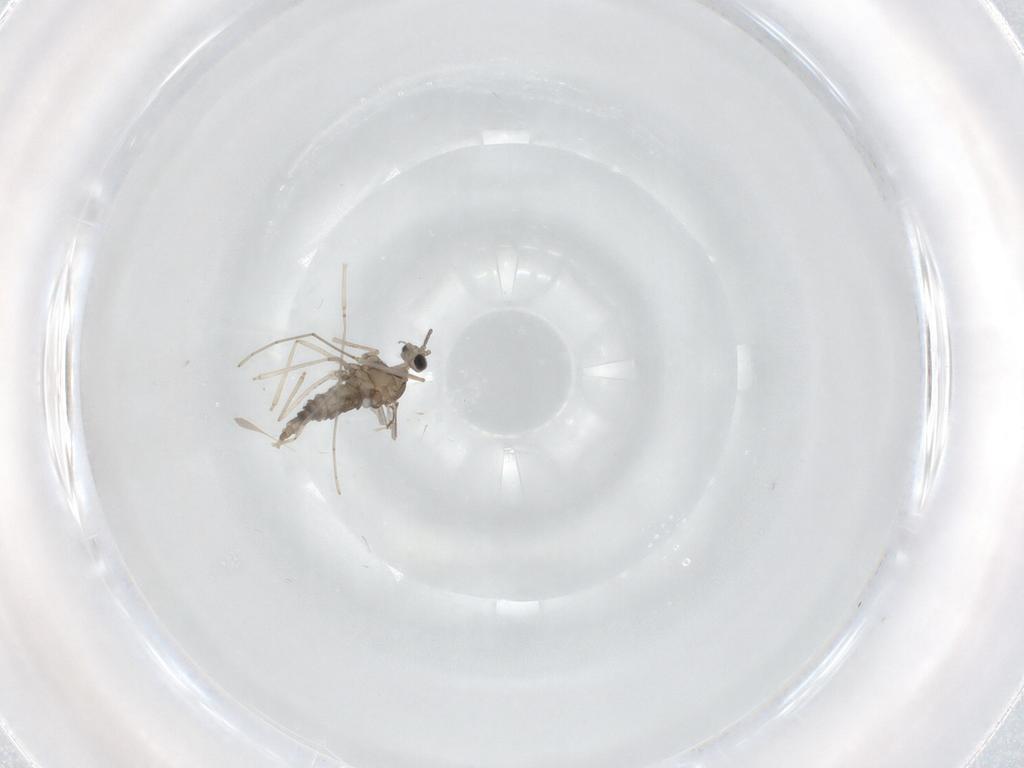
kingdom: Animalia
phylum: Arthropoda
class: Insecta
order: Diptera
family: Cecidomyiidae
